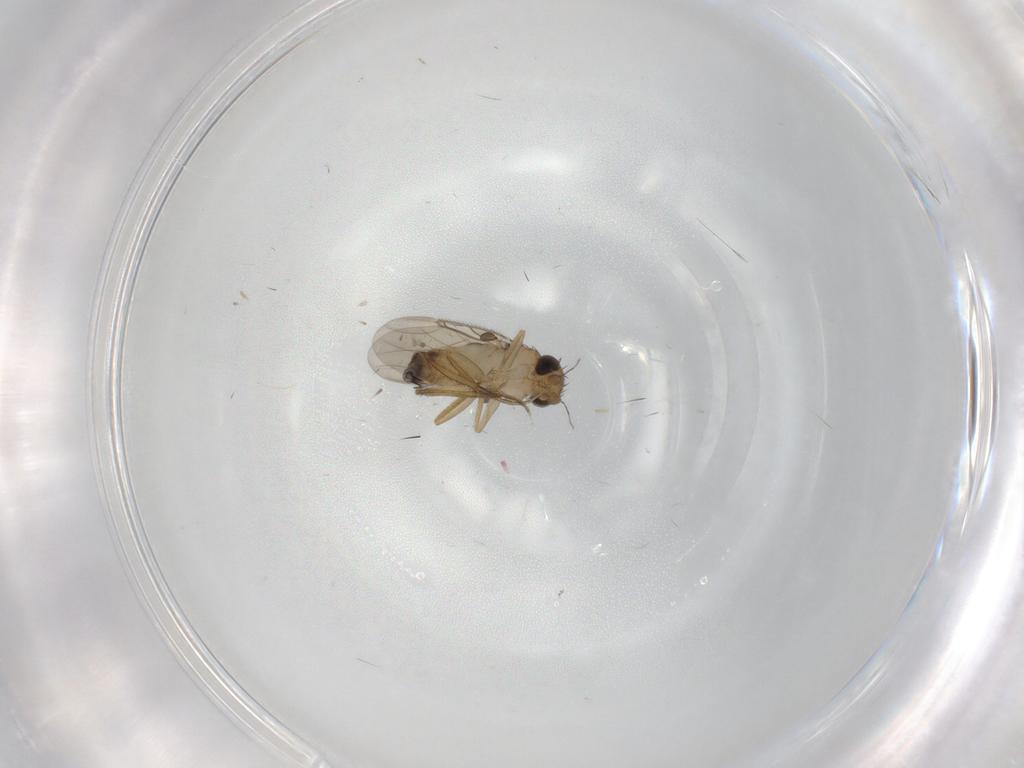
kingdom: Animalia
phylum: Arthropoda
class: Insecta
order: Diptera
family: Phoridae
